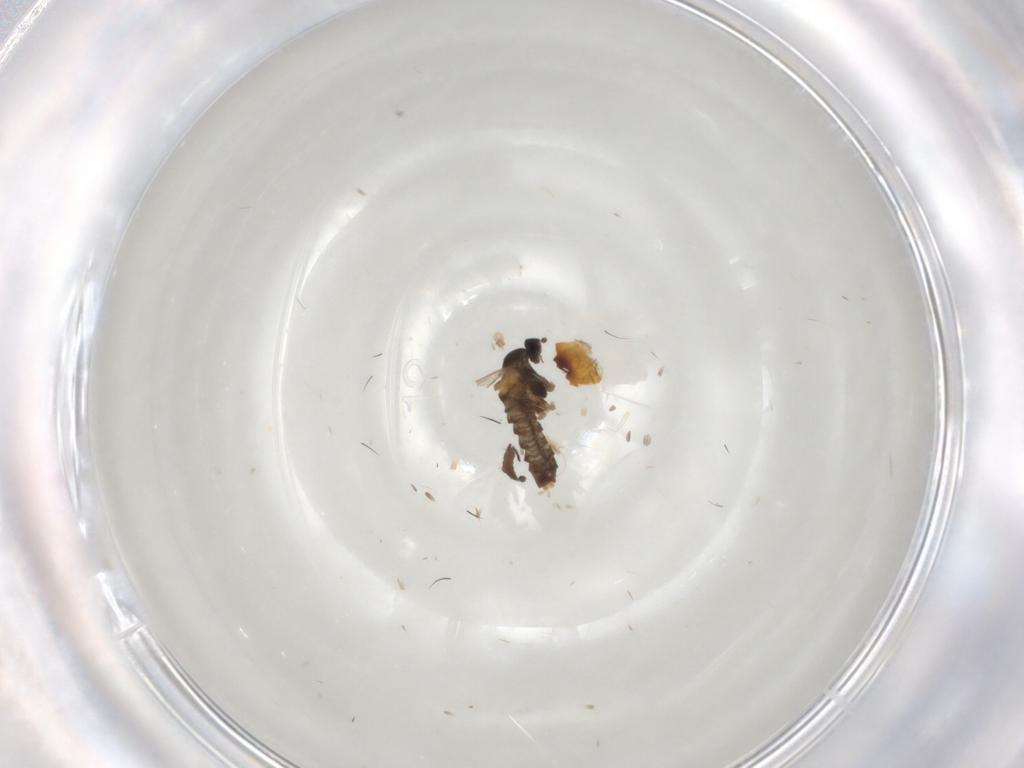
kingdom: Animalia
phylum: Arthropoda
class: Insecta
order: Diptera
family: Cecidomyiidae
